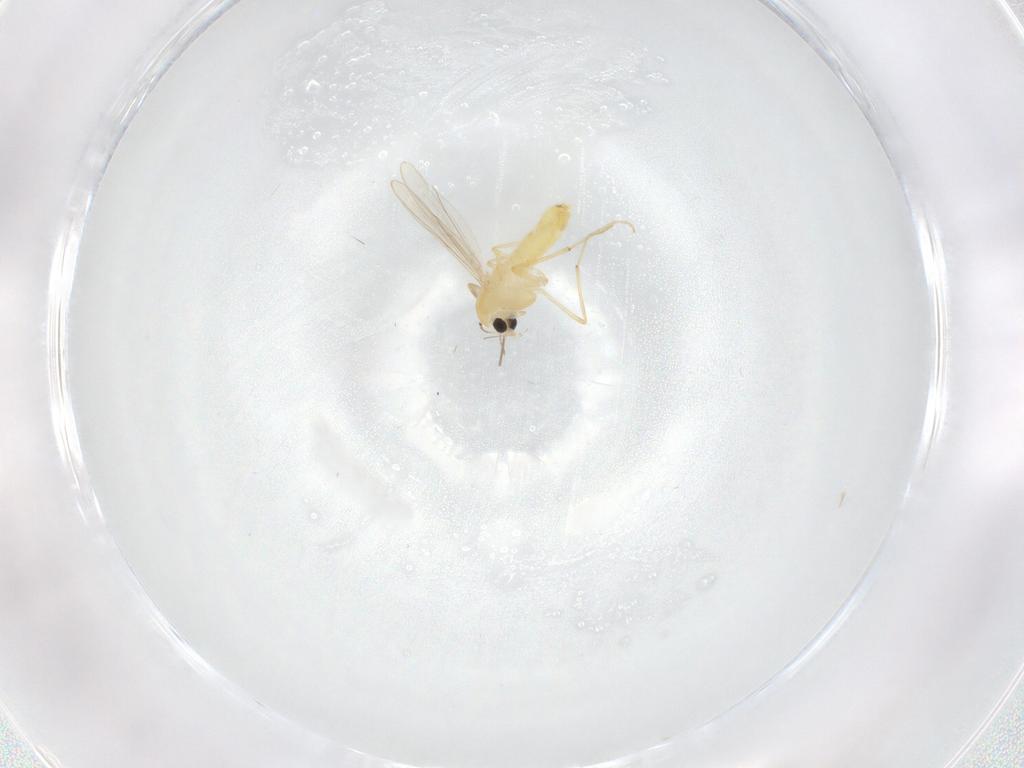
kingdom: Animalia
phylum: Arthropoda
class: Insecta
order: Diptera
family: Chironomidae
